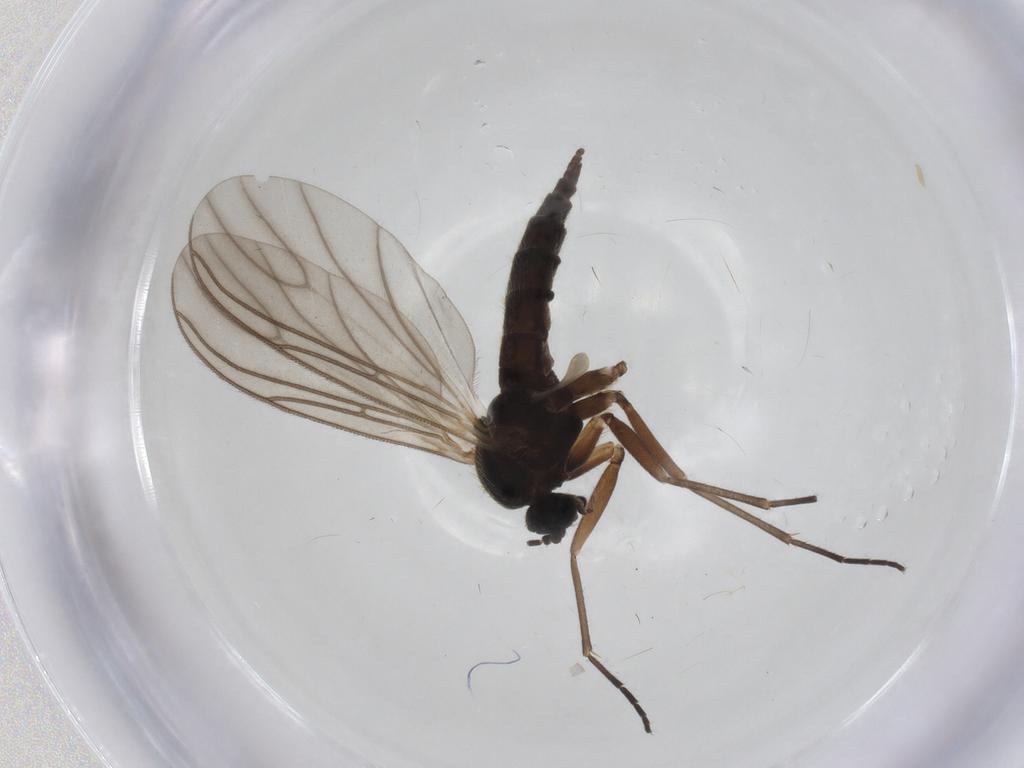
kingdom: Animalia
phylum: Arthropoda
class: Insecta
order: Diptera
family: Sciaridae
